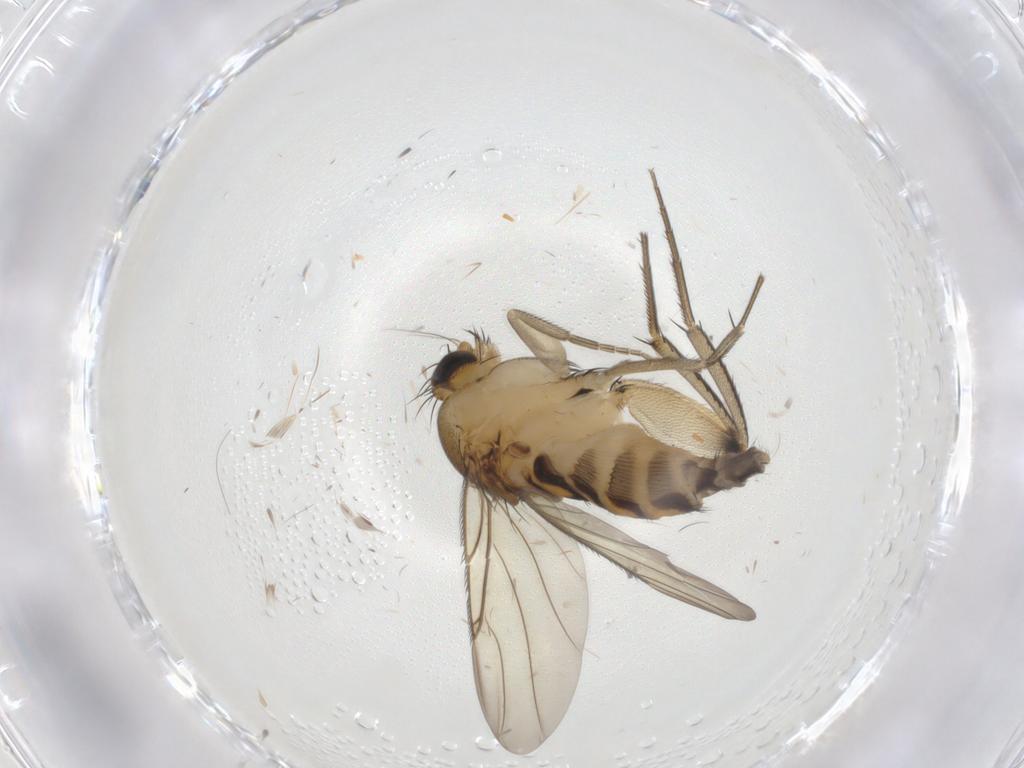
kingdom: Animalia
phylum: Arthropoda
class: Insecta
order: Diptera
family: Phoridae
